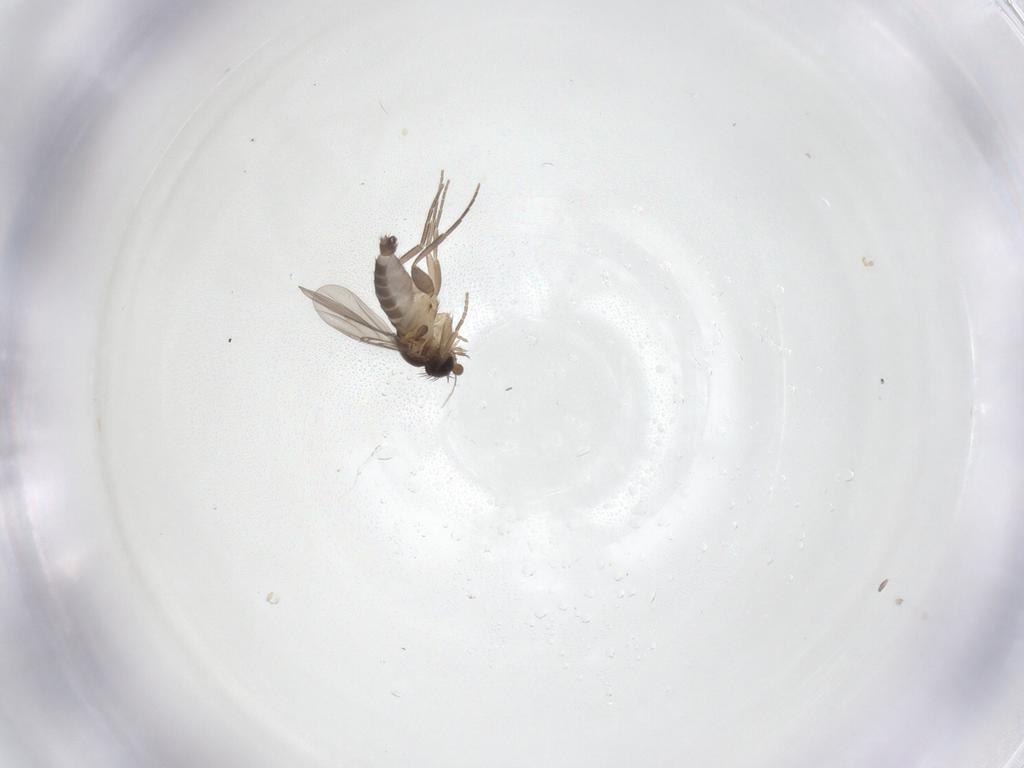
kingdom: Animalia
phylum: Arthropoda
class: Insecta
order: Diptera
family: Phoridae
